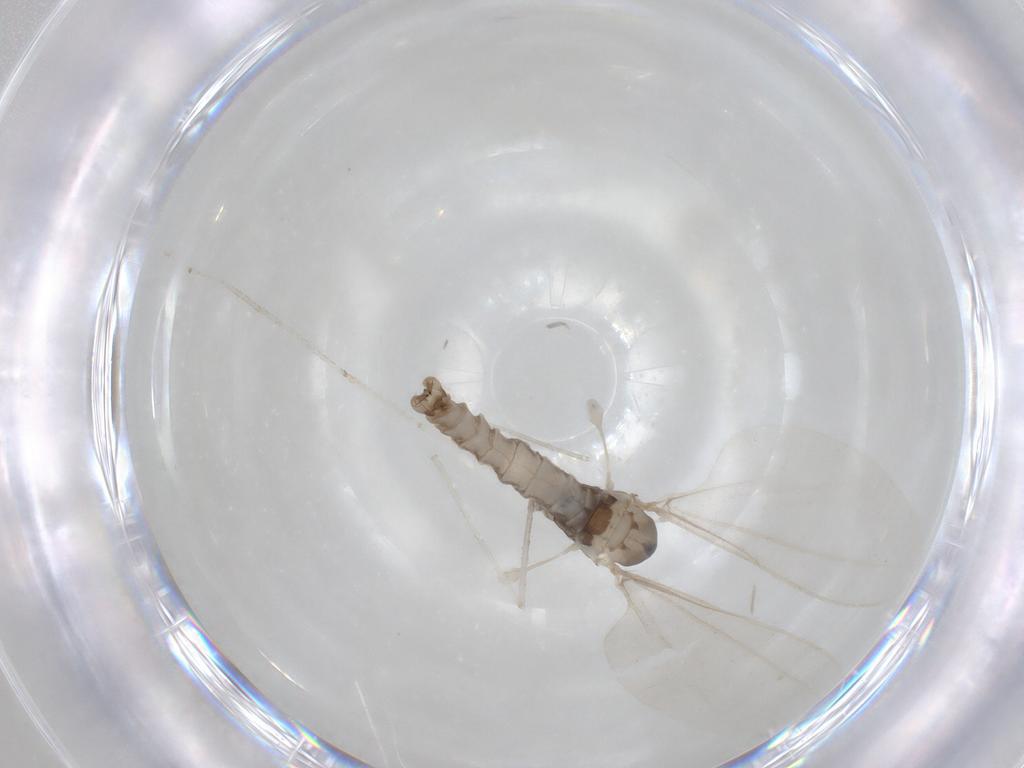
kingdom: Animalia
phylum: Arthropoda
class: Insecta
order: Diptera
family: Cecidomyiidae
